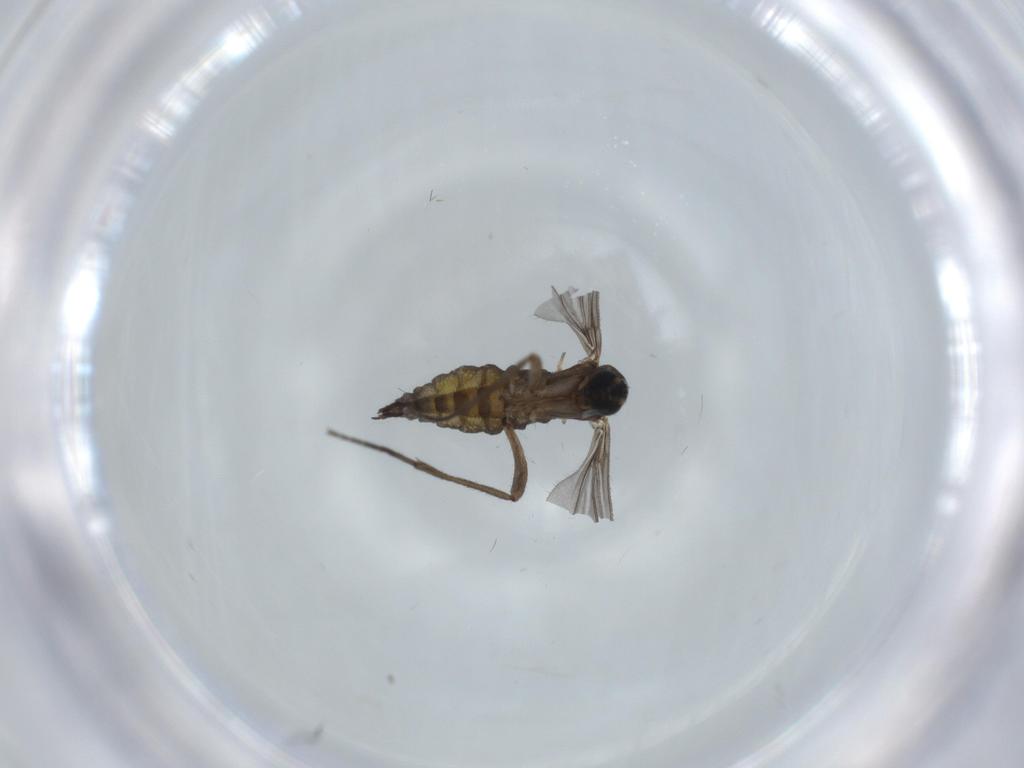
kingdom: Animalia
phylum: Arthropoda
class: Insecta
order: Diptera
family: Sciaridae
